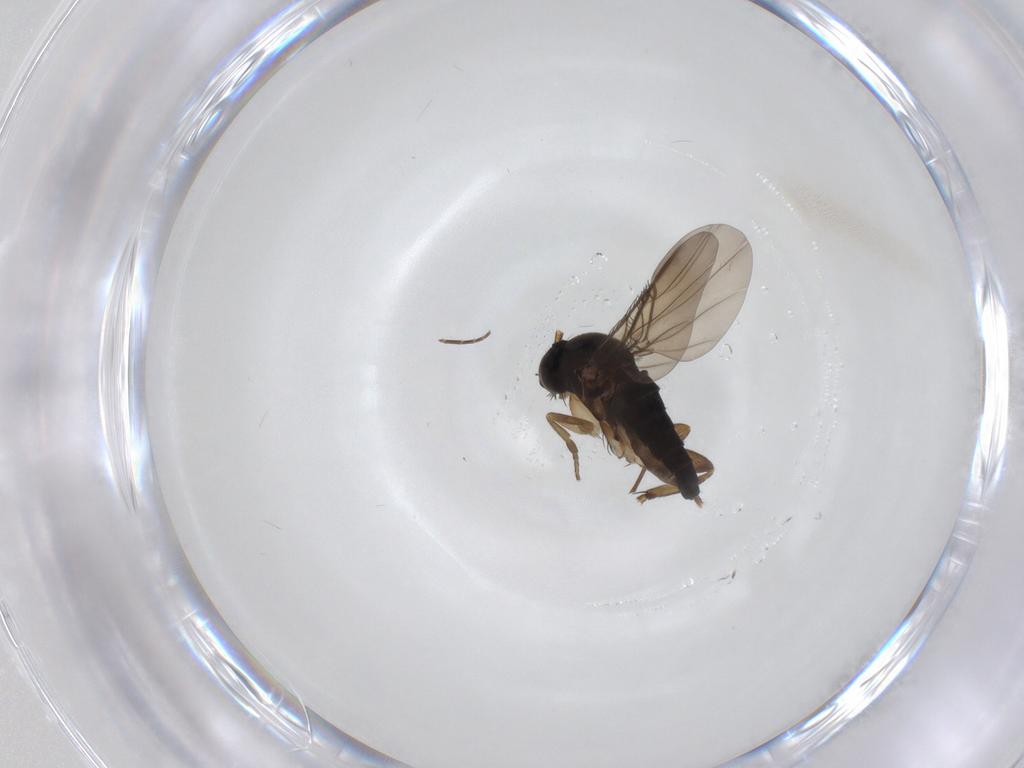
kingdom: Animalia
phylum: Arthropoda
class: Insecta
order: Diptera
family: Phoridae
